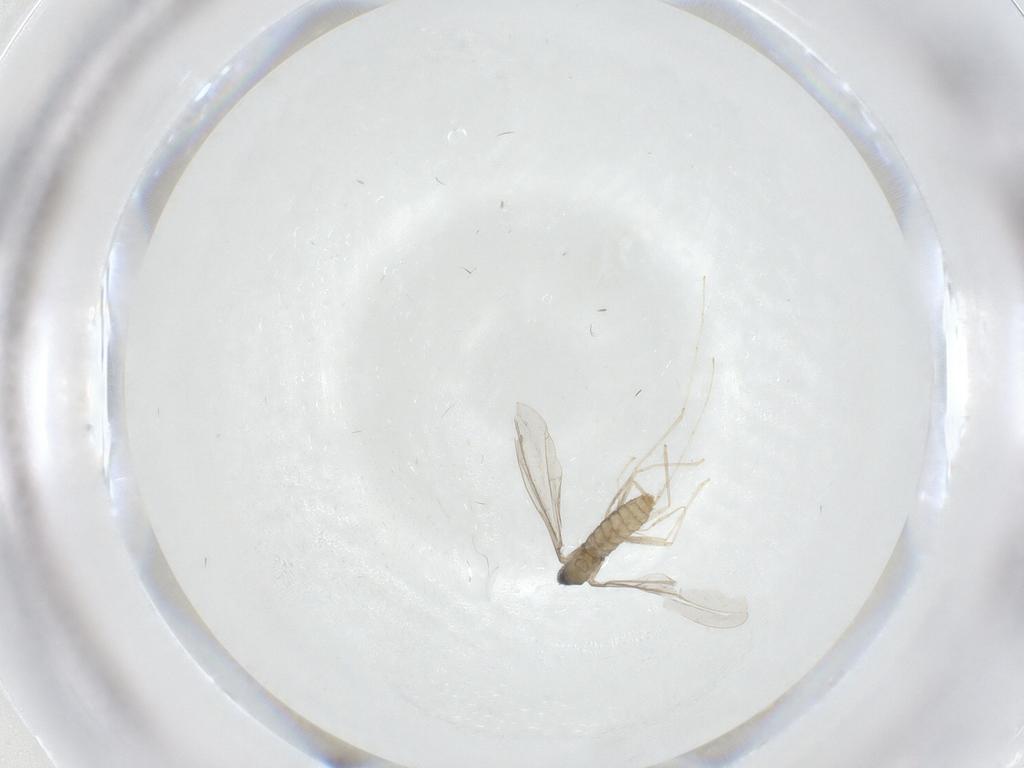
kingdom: Animalia
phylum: Arthropoda
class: Insecta
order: Diptera
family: Cecidomyiidae
